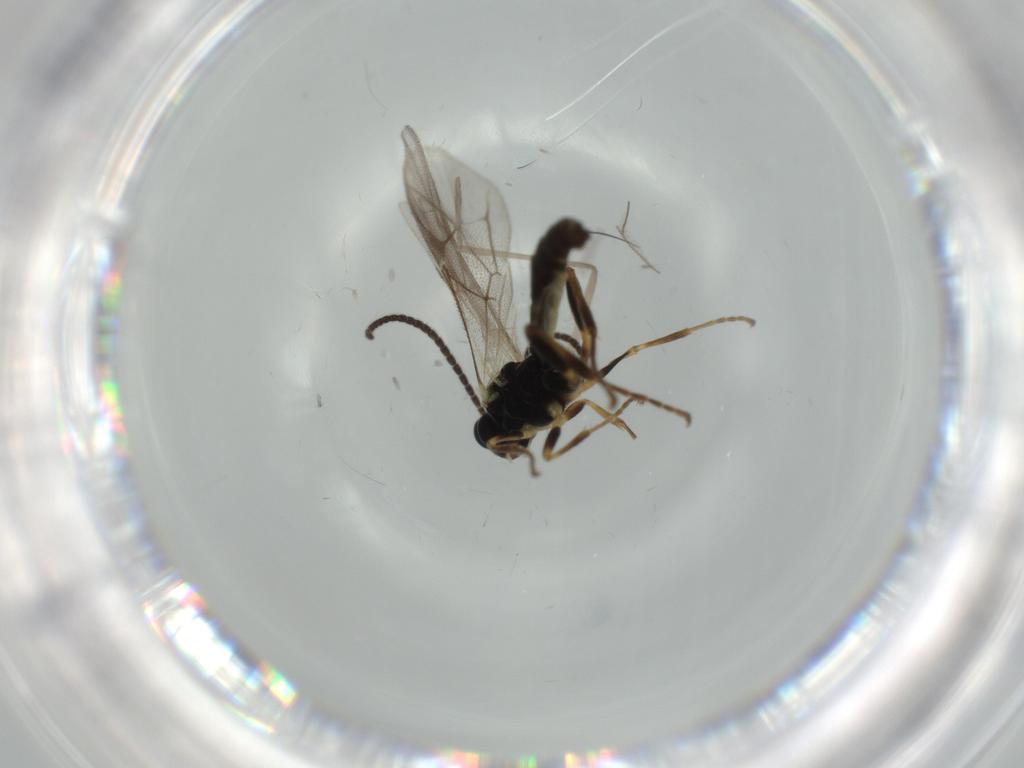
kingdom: Animalia
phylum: Arthropoda
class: Insecta
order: Hymenoptera
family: Ichneumonidae
